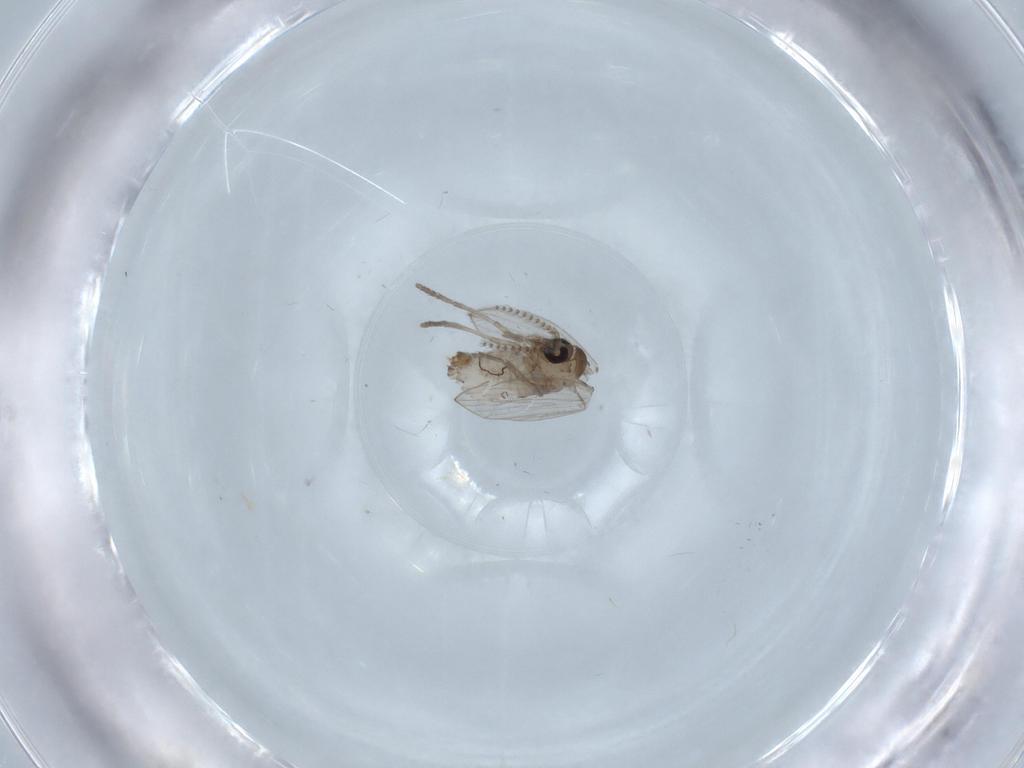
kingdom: Animalia
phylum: Arthropoda
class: Insecta
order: Diptera
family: Psychodidae
